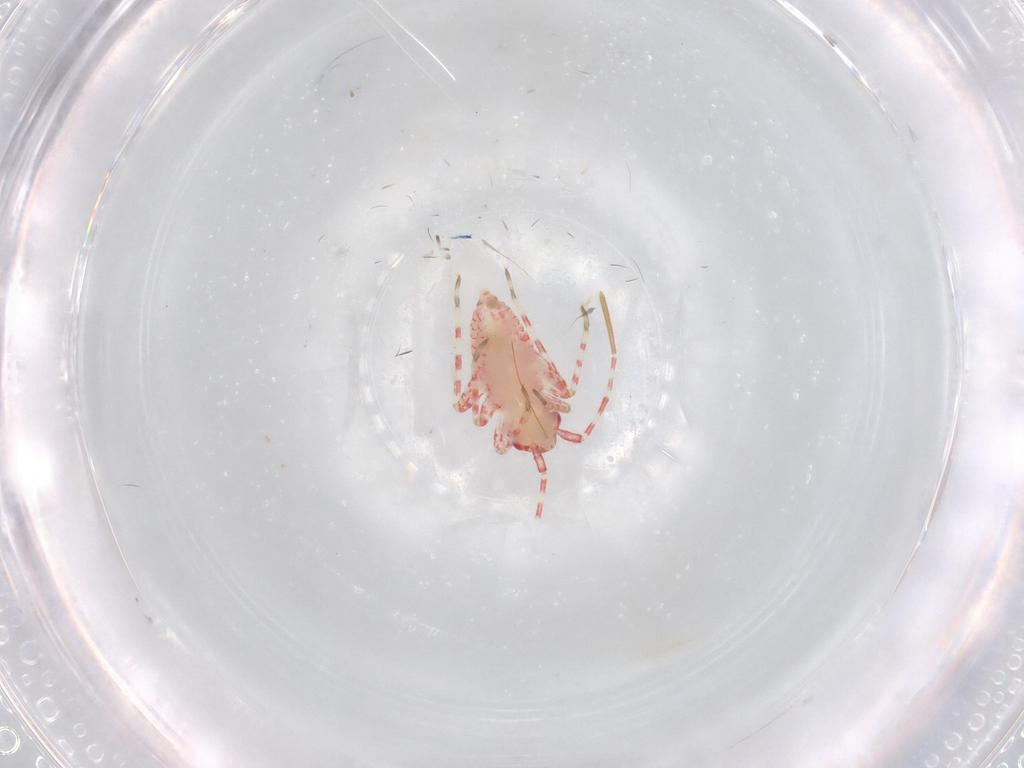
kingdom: Animalia
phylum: Arthropoda
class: Insecta
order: Hemiptera
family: Miridae
